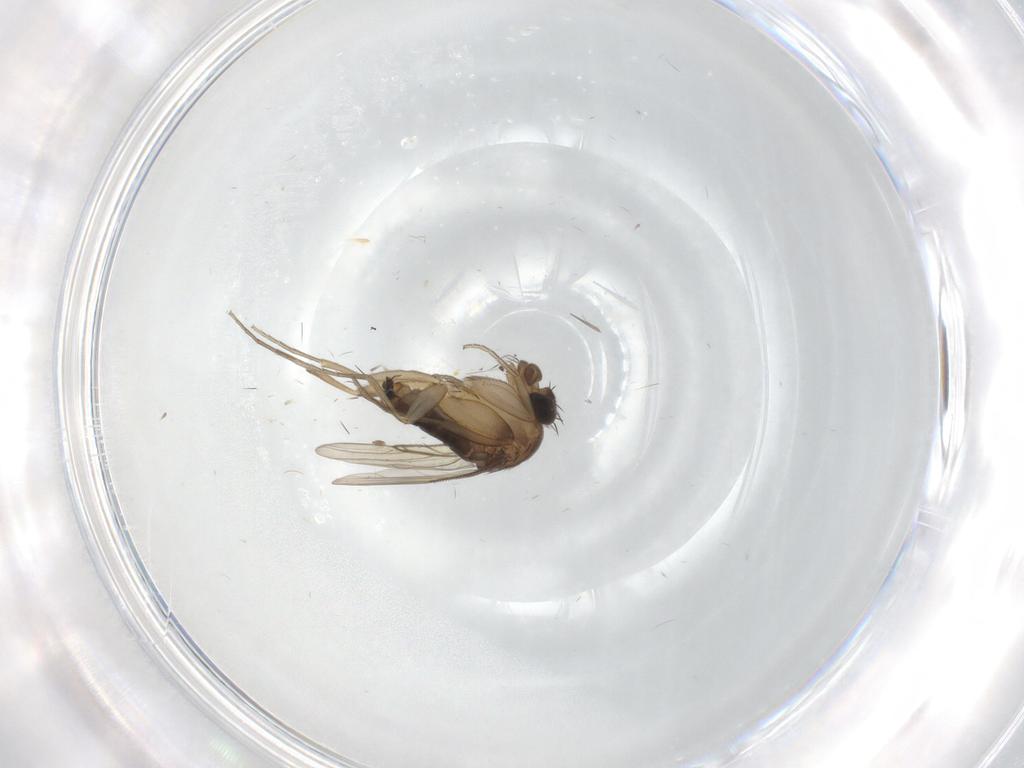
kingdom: Animalia
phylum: Arthropoda
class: Insecta
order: Diptera
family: Phoridae
